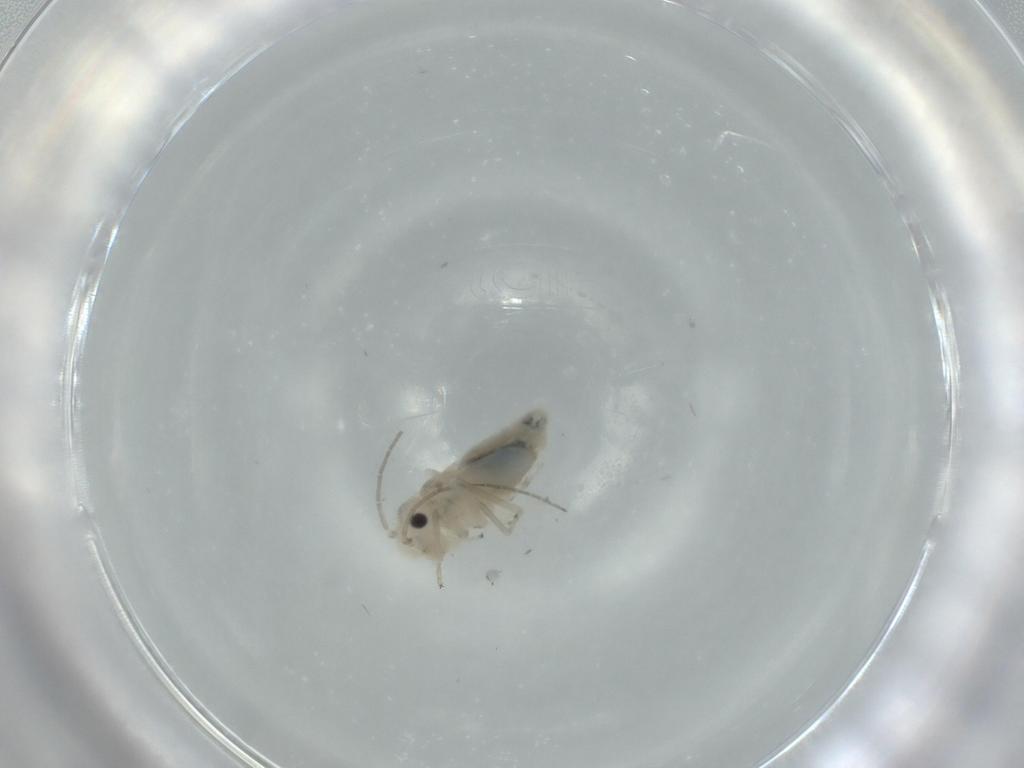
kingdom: Animalia
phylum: Arthropoda
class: Insecta
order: Psocodea
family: Caeciliusidae
